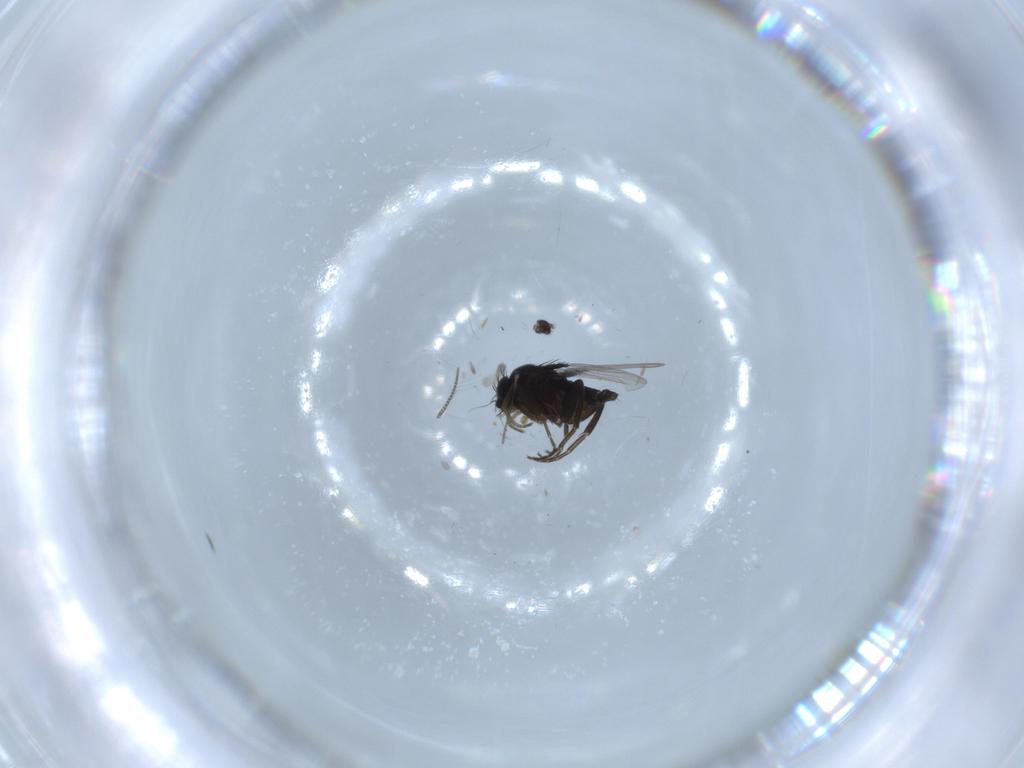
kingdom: Animalia
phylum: Arthropoda
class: Insecta
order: Diptera
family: Phoridae
